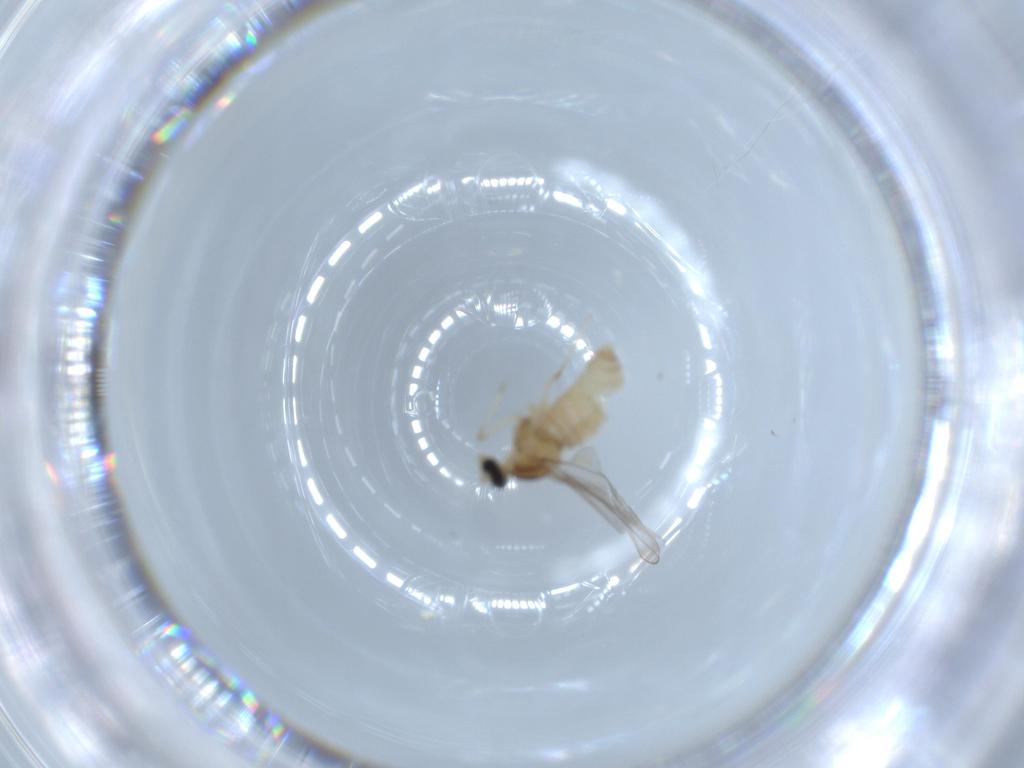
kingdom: Animalia
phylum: Arthropoda
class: Insecta
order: Diptera
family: Cecidomyiidae
